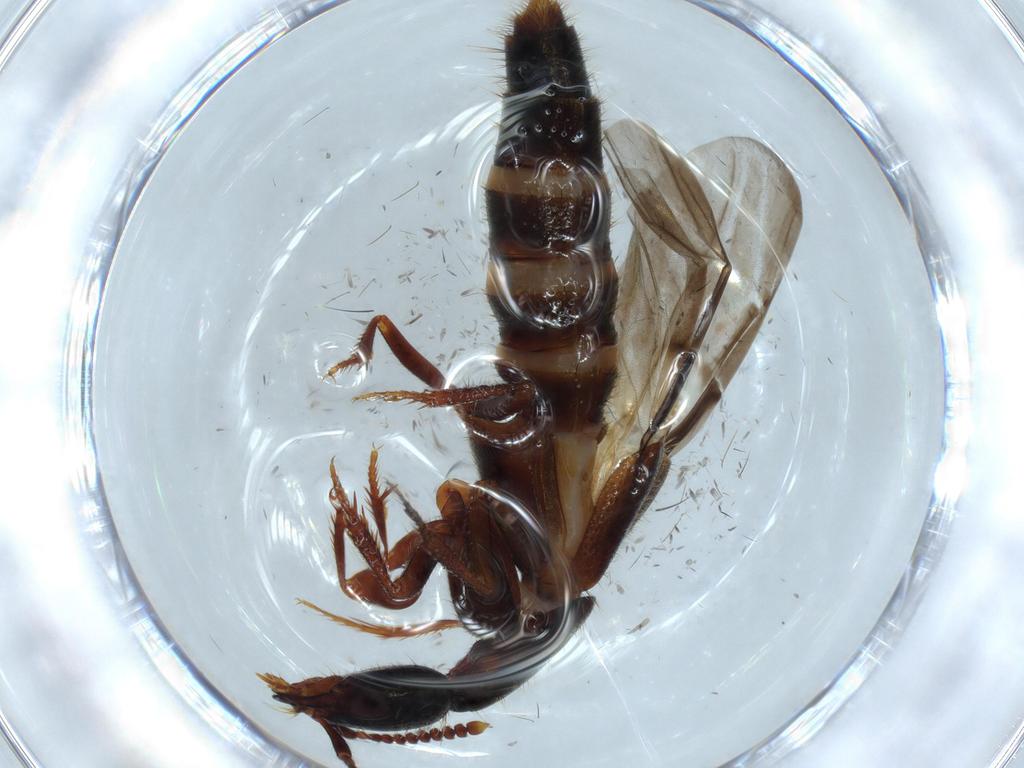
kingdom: Animalia
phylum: Arthropoda
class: Insecta
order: Coleoptera
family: Staphylinidae
